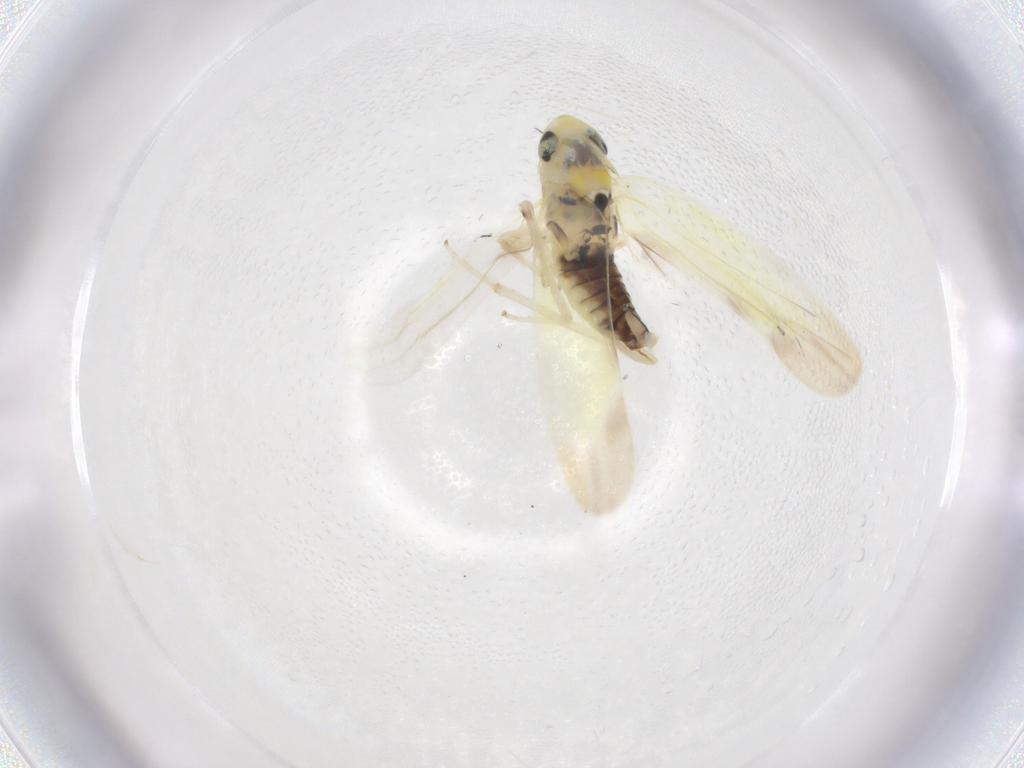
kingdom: Animalia
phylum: Arthropoda
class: Insecta
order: Hemiptera
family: Cicadellidae
